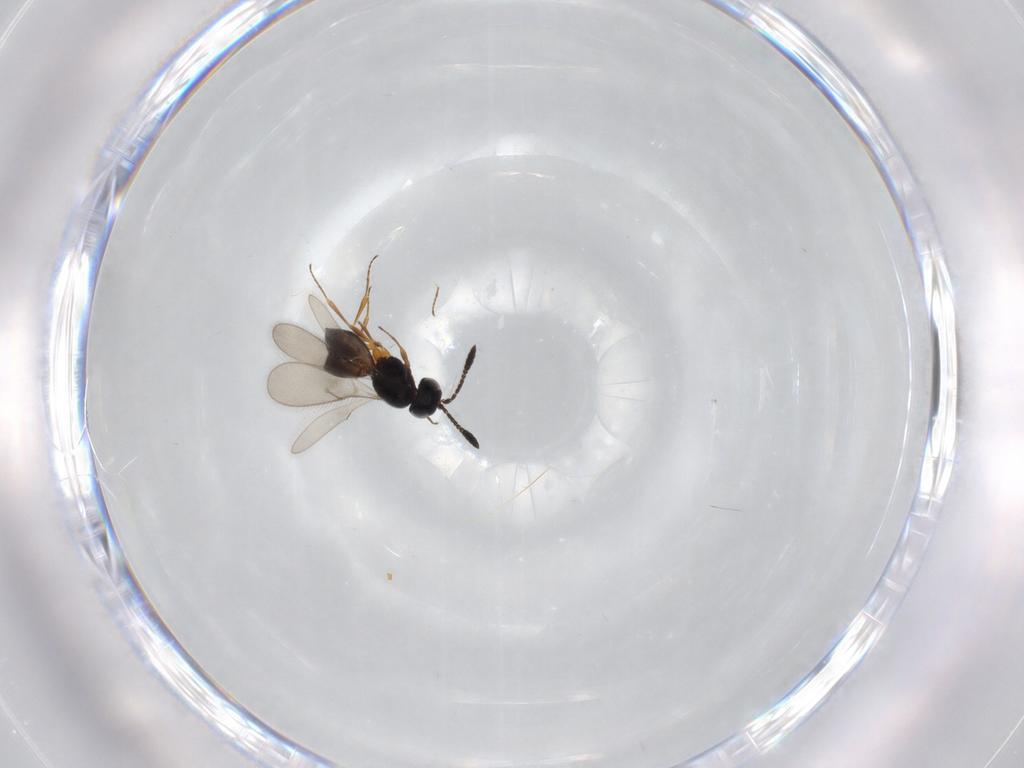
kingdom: Animalia
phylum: Arthropoda
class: Insecta
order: Hymenoptera
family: Scelionidae
